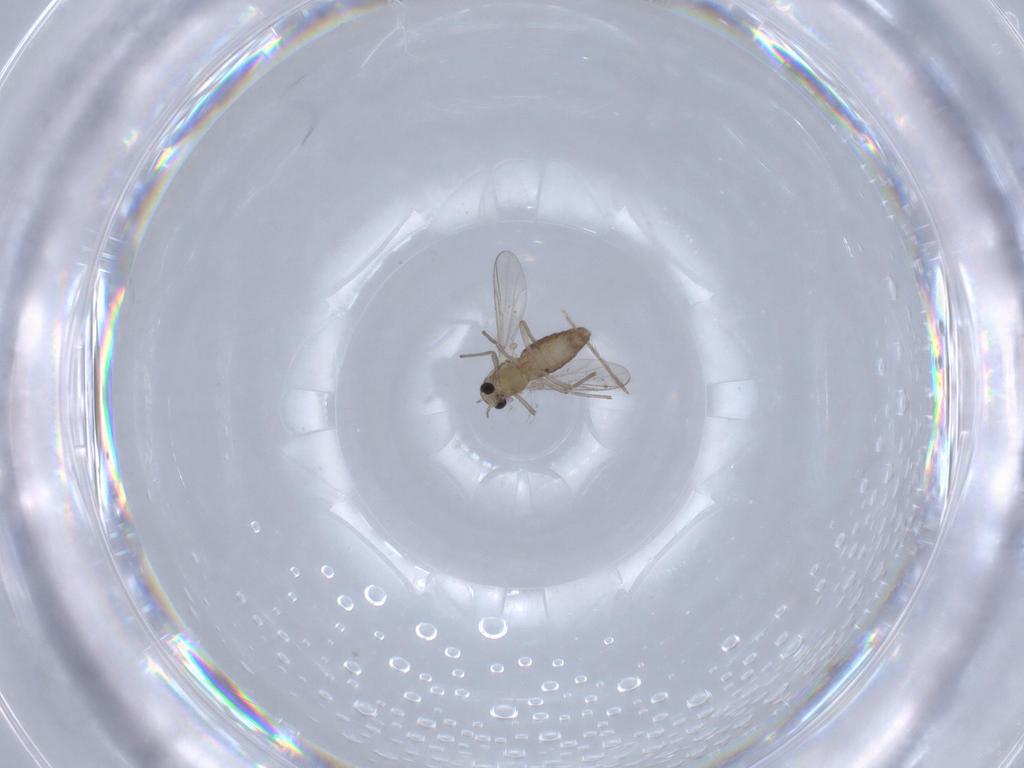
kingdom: Animalia
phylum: Arthropoda
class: Insecta
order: Diptera
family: Chironomidae
